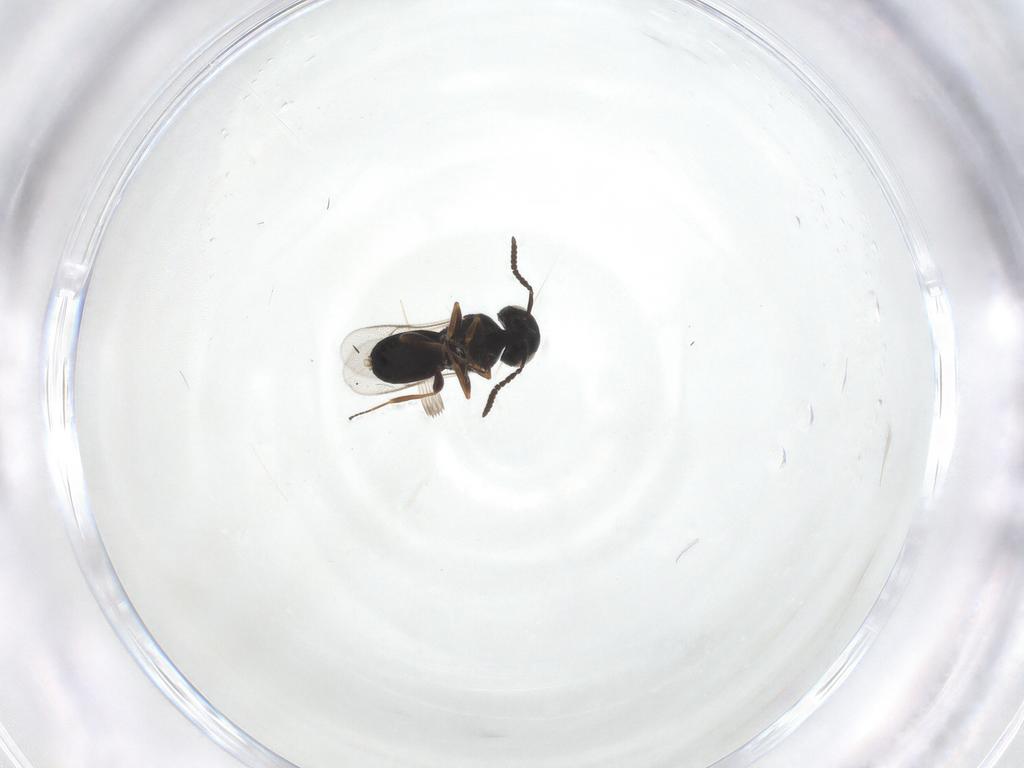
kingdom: Animalia
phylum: Arthropoda
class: Insecta
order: Hymenoptera
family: Scelionidae
